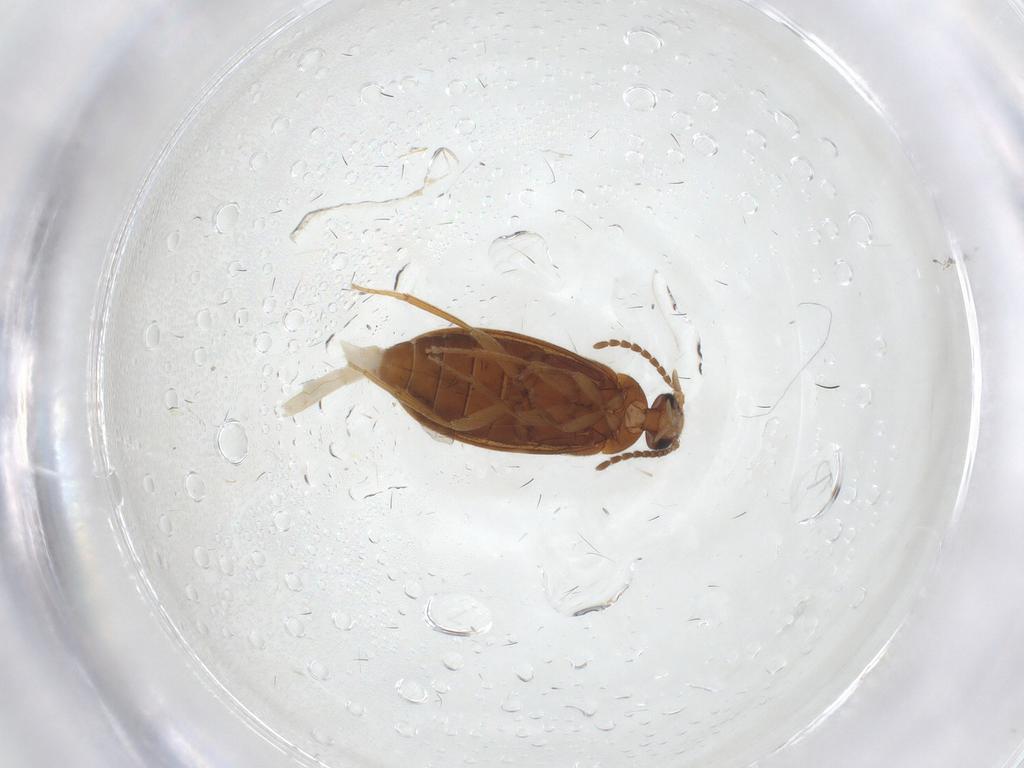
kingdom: Animalia
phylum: Arthropoda
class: Insecta
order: Coleoptera
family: Scraptiidae
